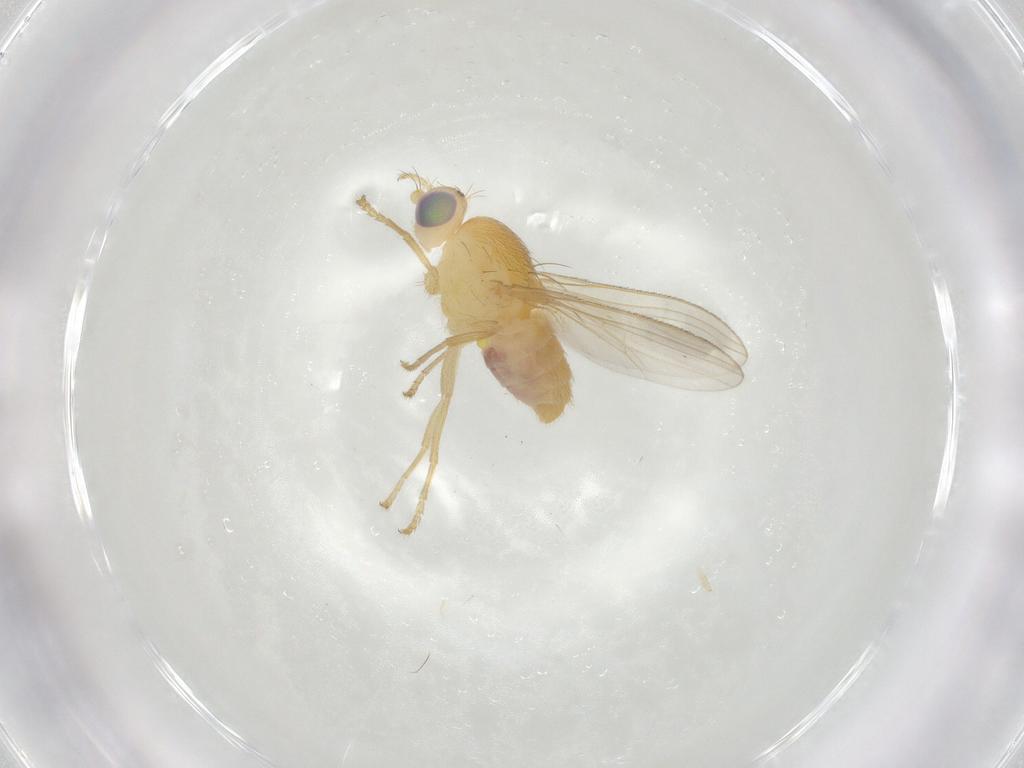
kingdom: Animalia
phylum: Arthropoda
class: Insecta
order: Diptera
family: Chyromyidae
